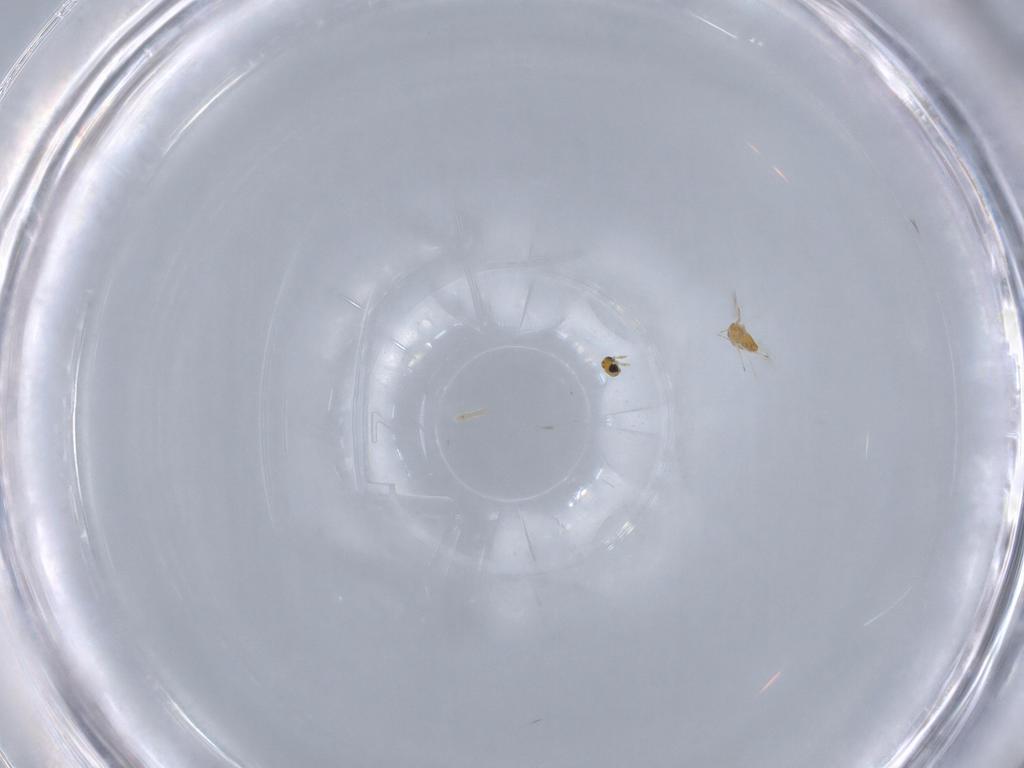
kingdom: Animalia
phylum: Arthropoda
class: Insecta
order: Hymenoptera
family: Trichogrammatidae
